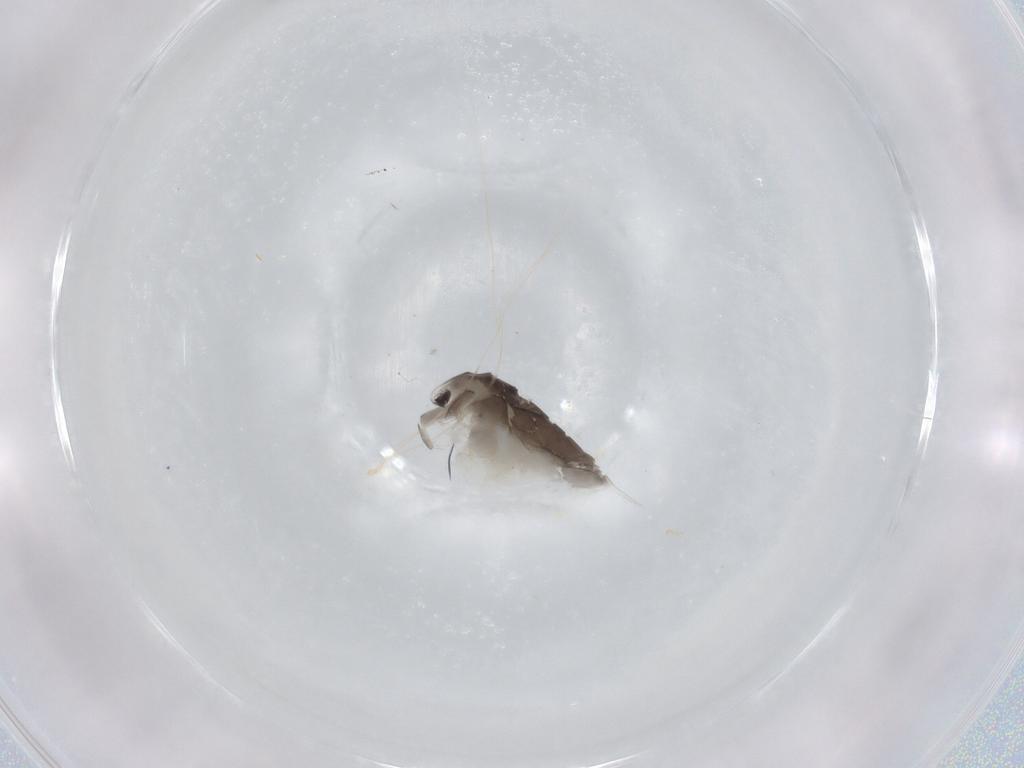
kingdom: Animalia
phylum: Arthropoda
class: Branchiopoda
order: Diplostraca
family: Daphniidae
